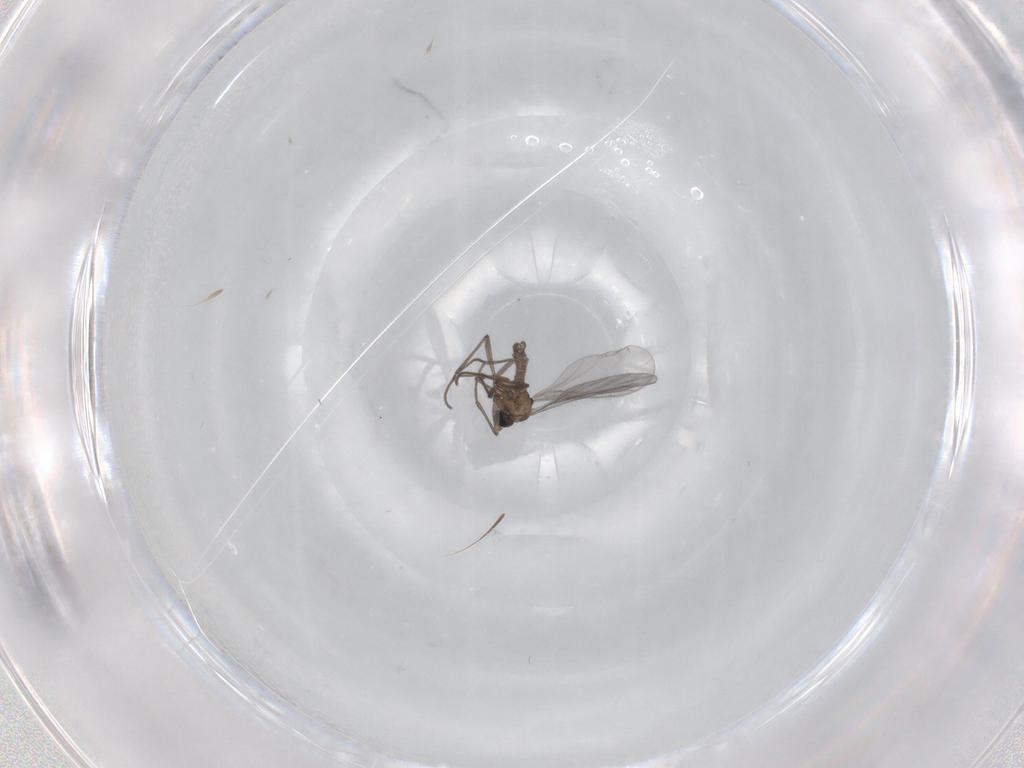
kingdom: Animalia
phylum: Arthropoda
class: Insecta
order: Diptera
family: Sciaridae
